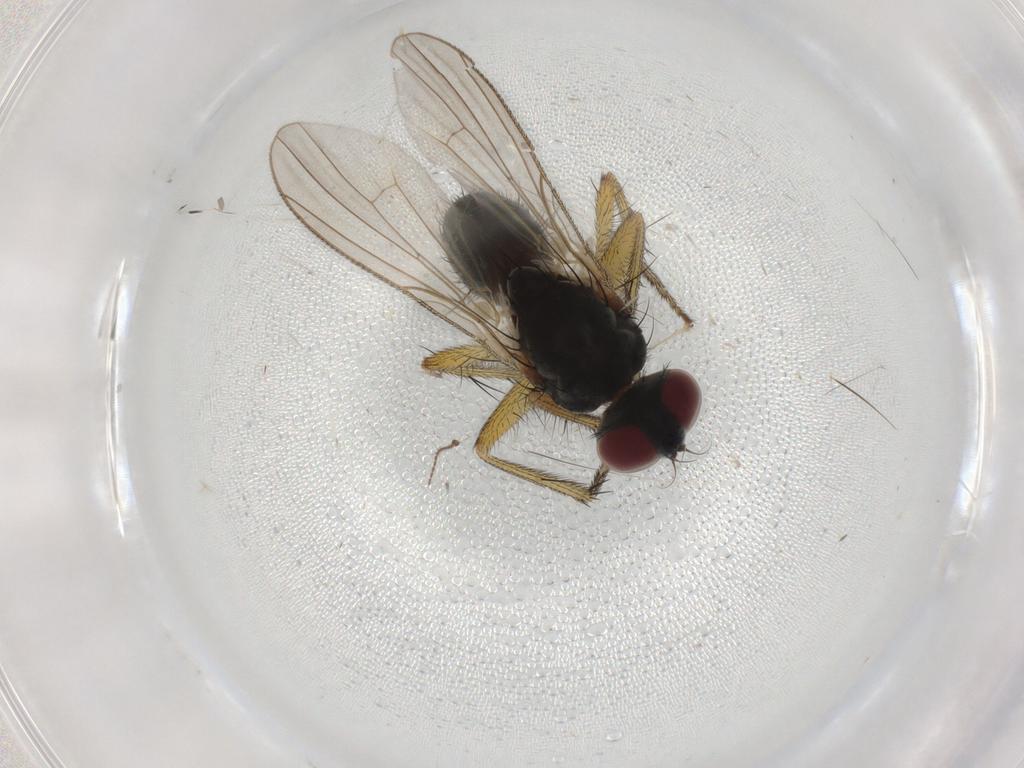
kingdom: Animalia
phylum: Arthropoda
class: Insecta
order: Diptera
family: Muscidae
